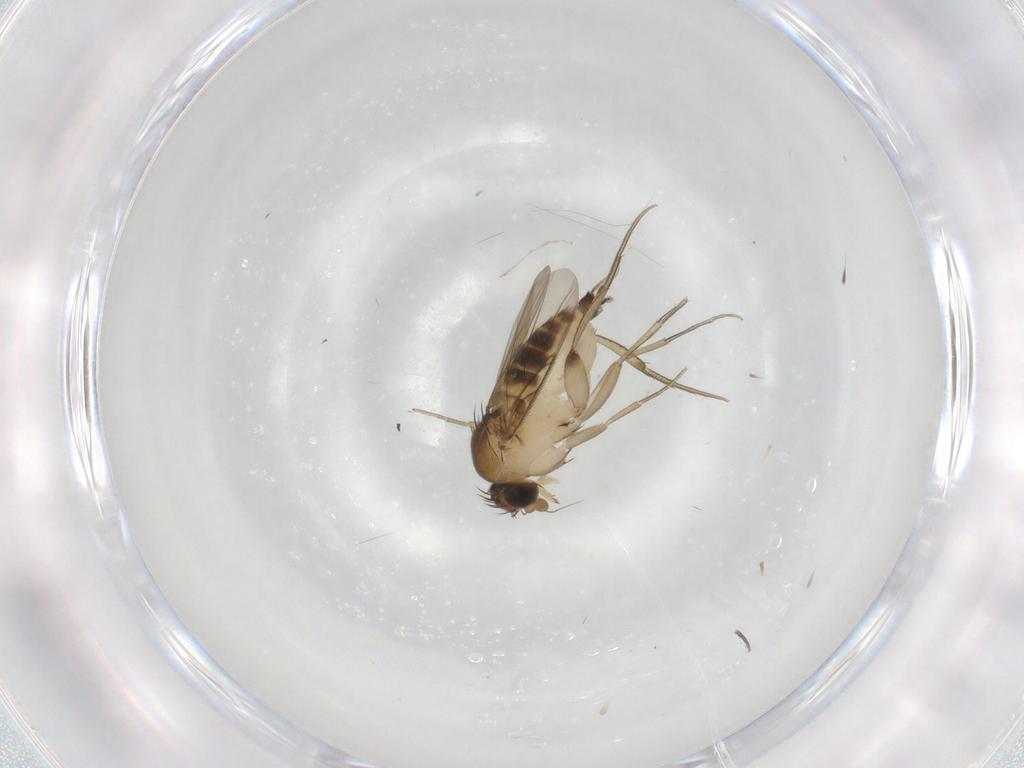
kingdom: Animalia
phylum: Arthropoda
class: Insecta
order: Diptera
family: Phoridae
